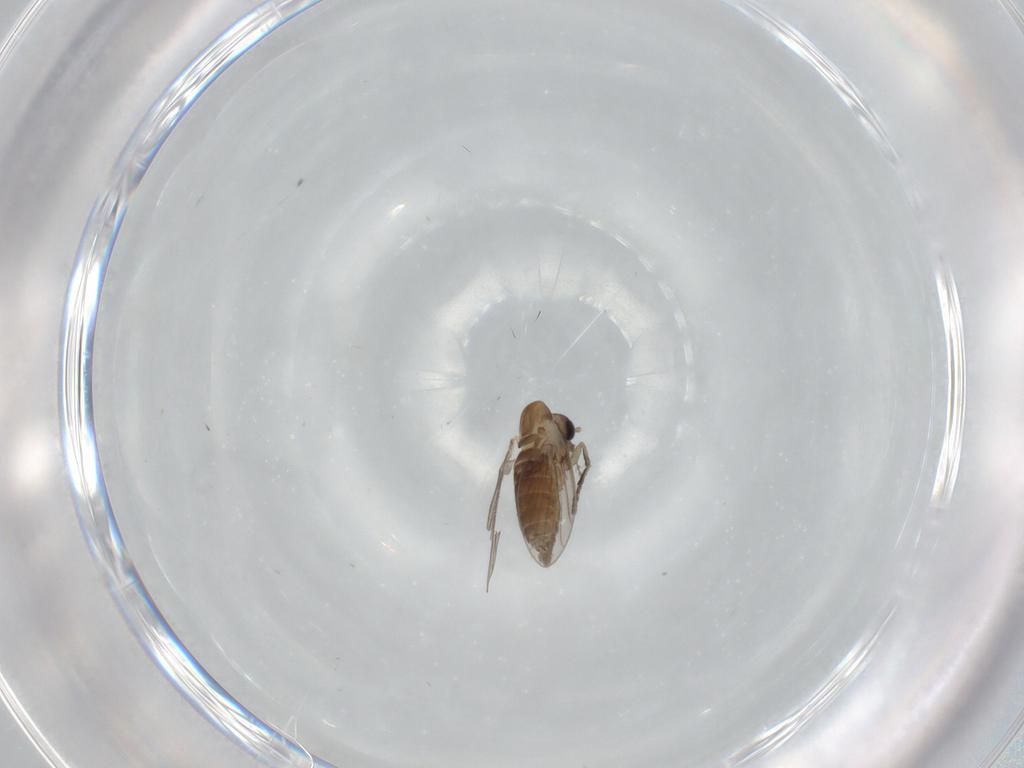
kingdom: Animalia
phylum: Arthropoda
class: Insecta
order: Diptera
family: Psychodidae
